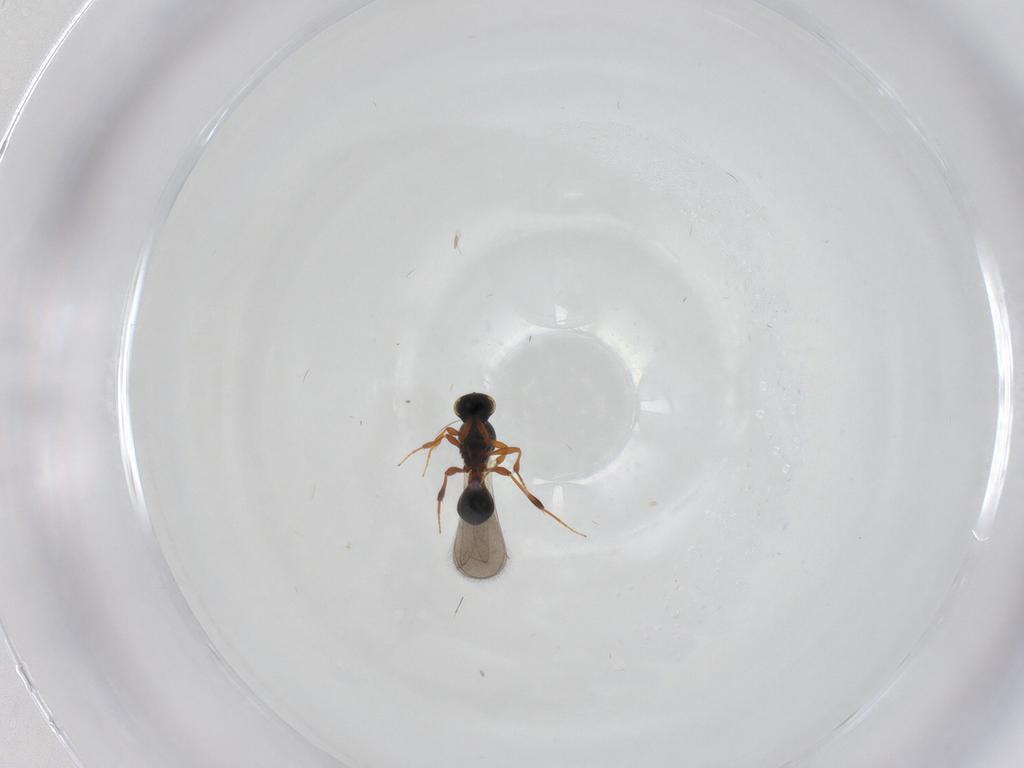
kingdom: Animalia
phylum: Arthropoda
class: Insecta
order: Hymenoptera
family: Platygastridae
